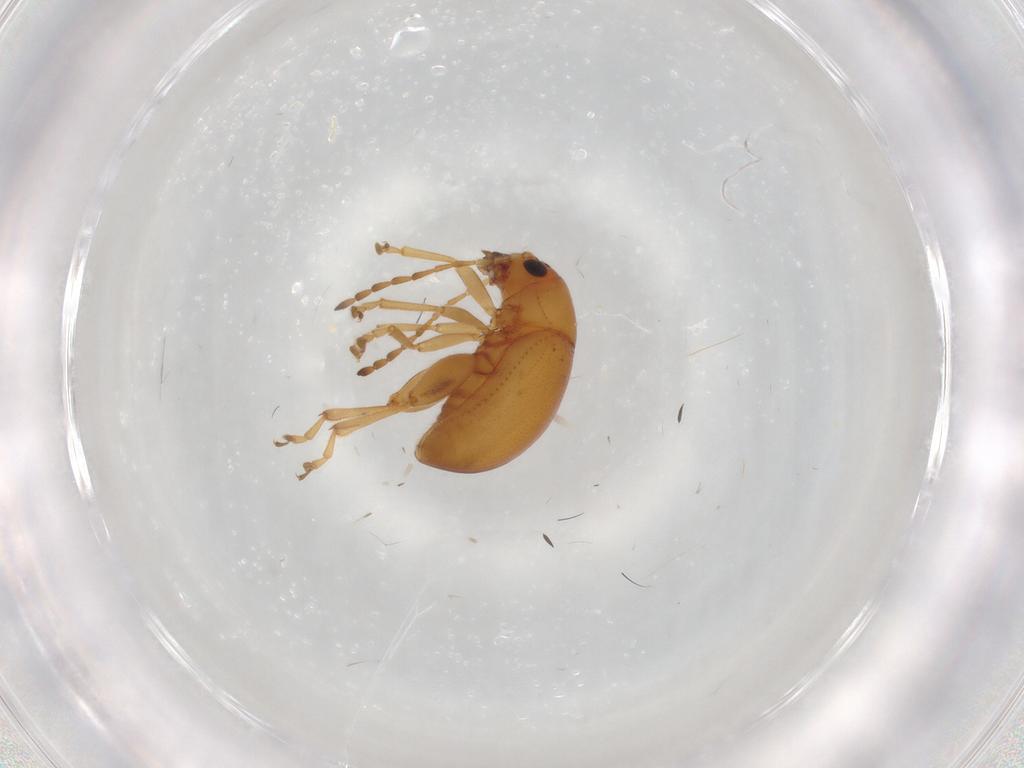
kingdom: Animalia
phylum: Arthropoda
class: Insecta
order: Coleoptera
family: Chrysomelidae
